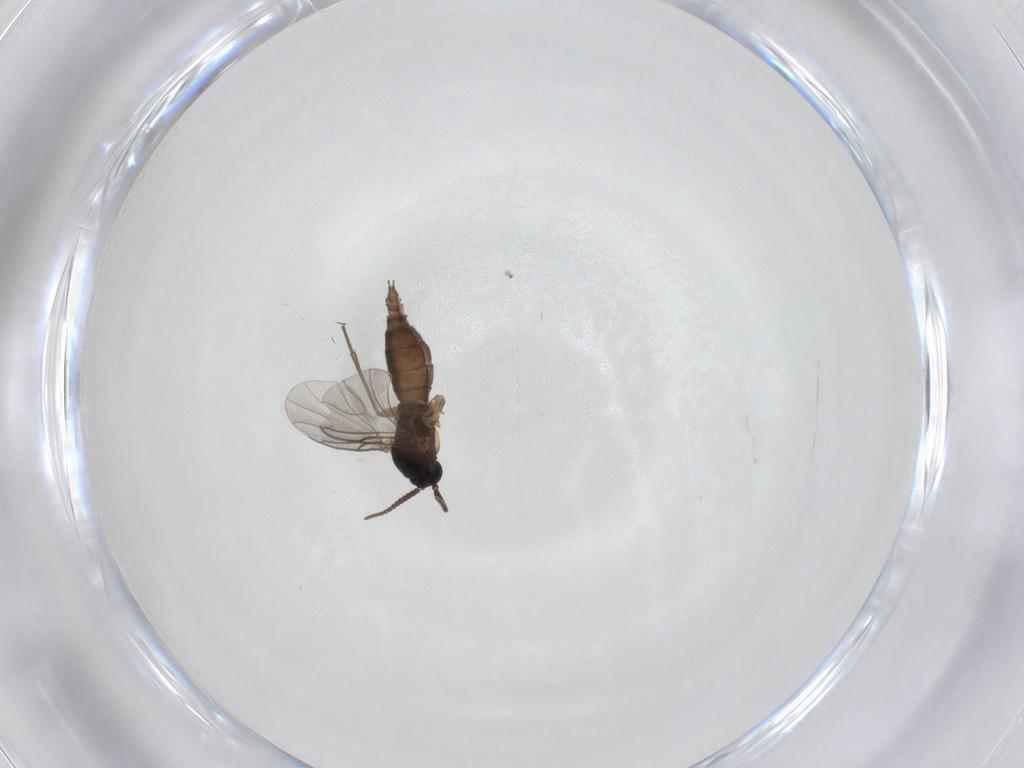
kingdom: Animalia
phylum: Arthropoda
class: Insecta
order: Diptera
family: Sciaridae
